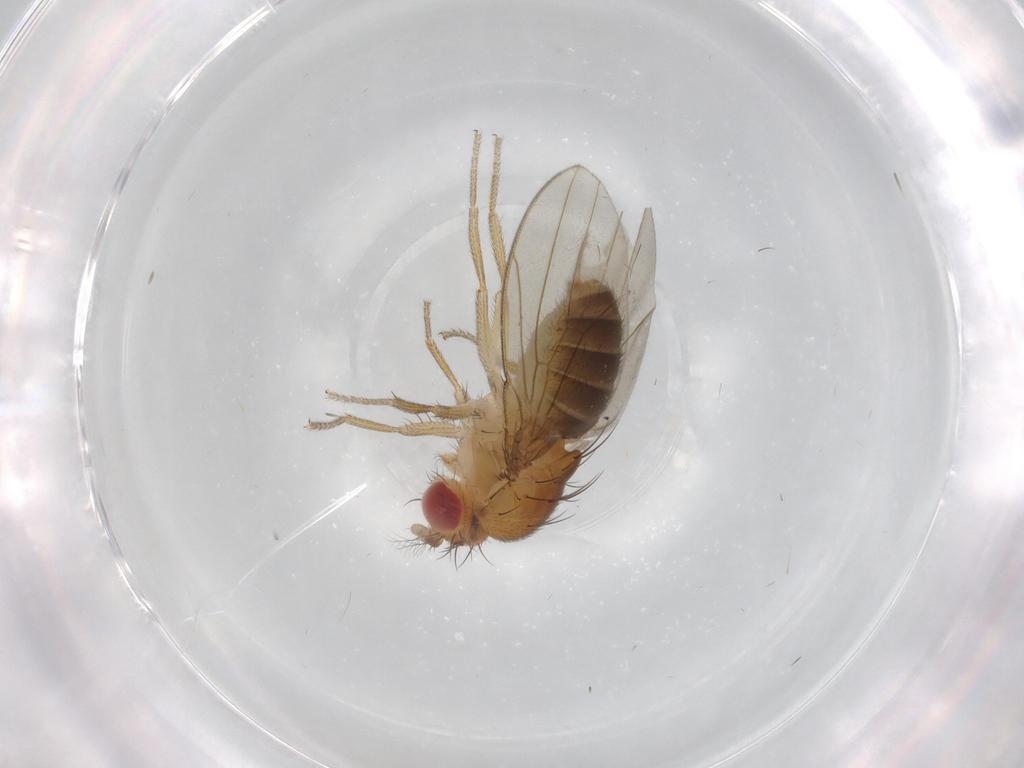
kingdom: Animalia
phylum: Arthropoda
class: Insecta
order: Diptera
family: Drosophilidae
